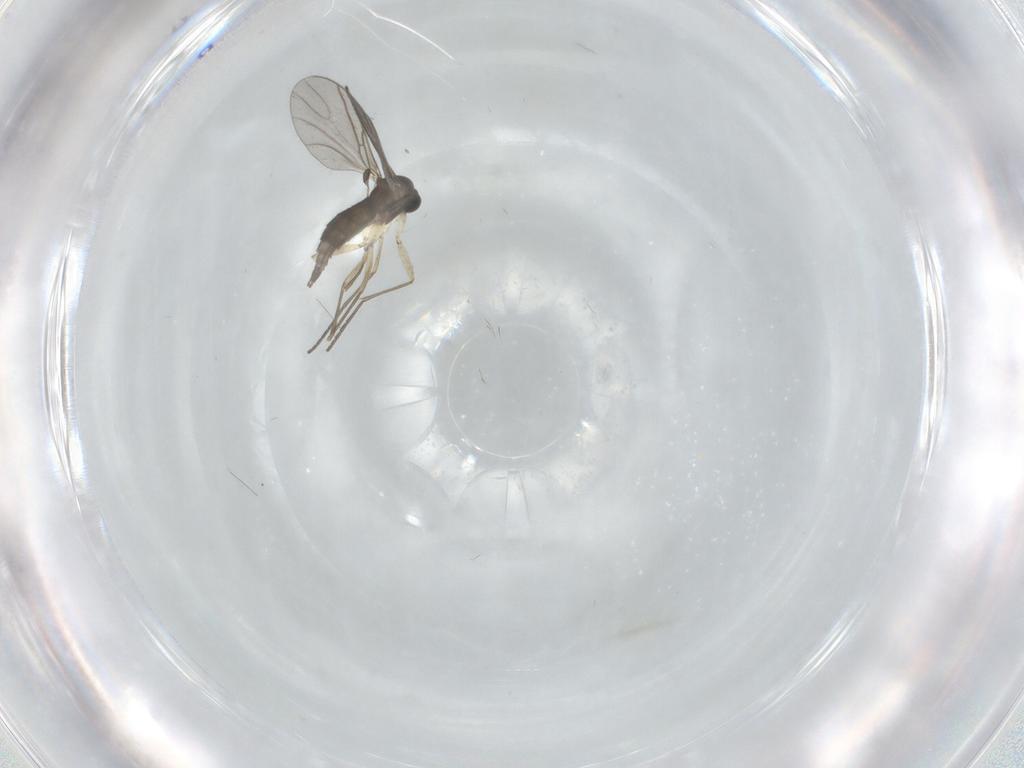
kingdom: Animalia
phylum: Arthropoda
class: Insecta
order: Diptera
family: Sciaridae
